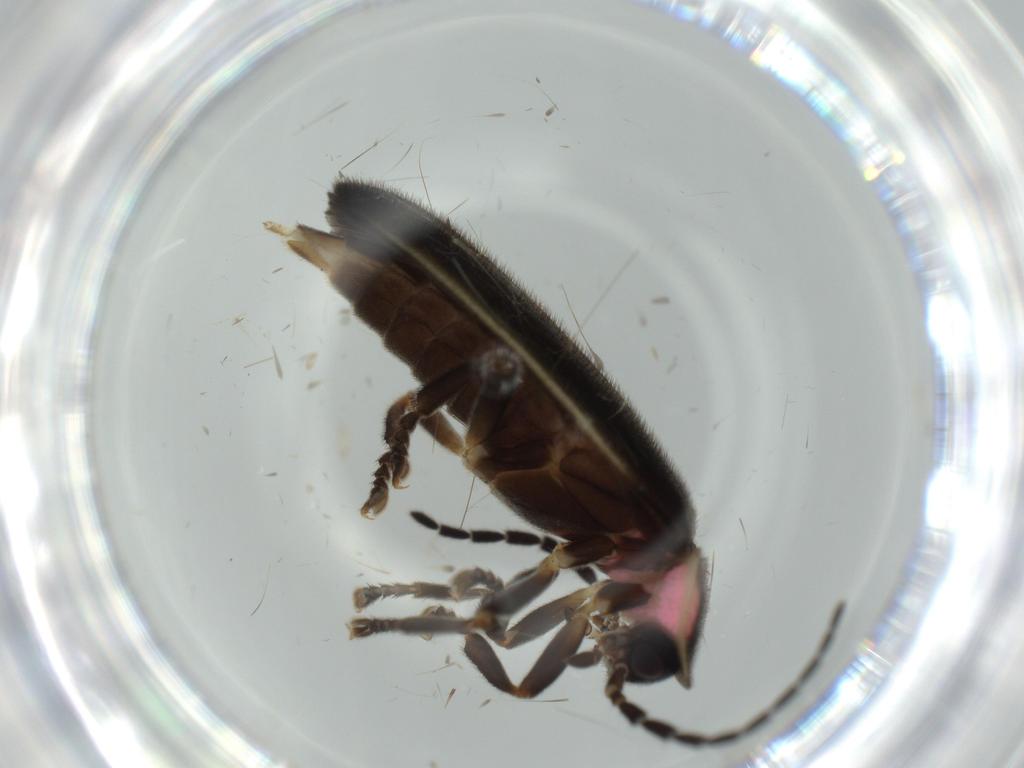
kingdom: Animalia
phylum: Arthropoda
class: Insecta
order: Coleoptera
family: Lampyridae
